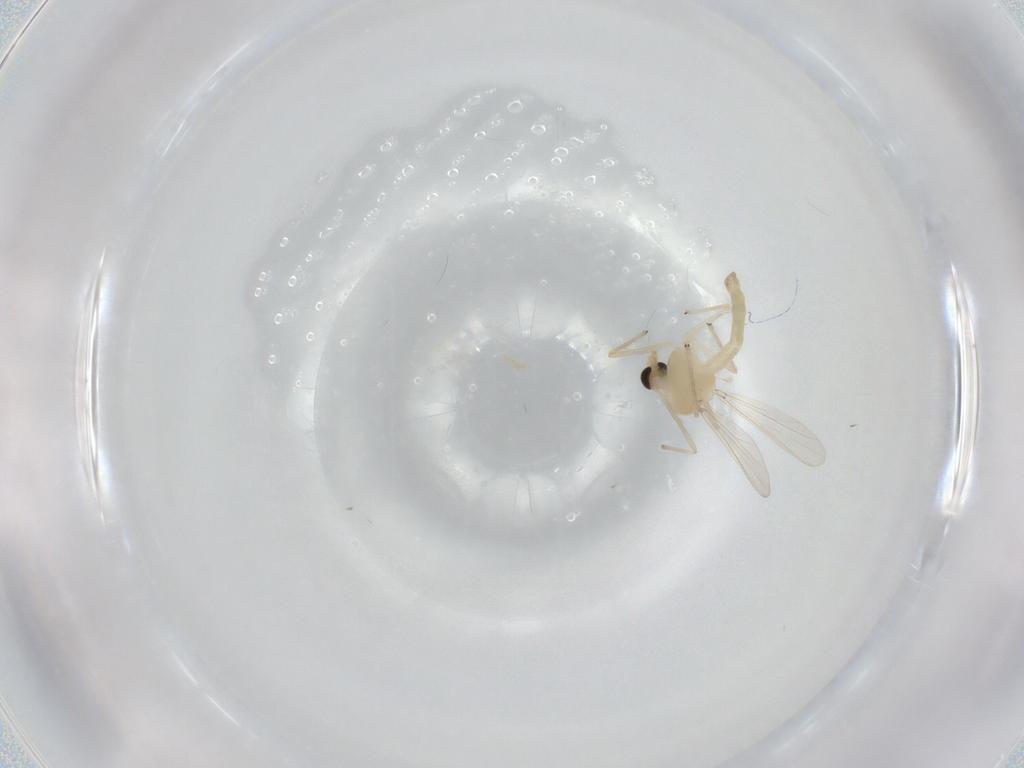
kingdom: Animalia
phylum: Arthropoda
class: Insecta
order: Diptera
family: Chironomidae
